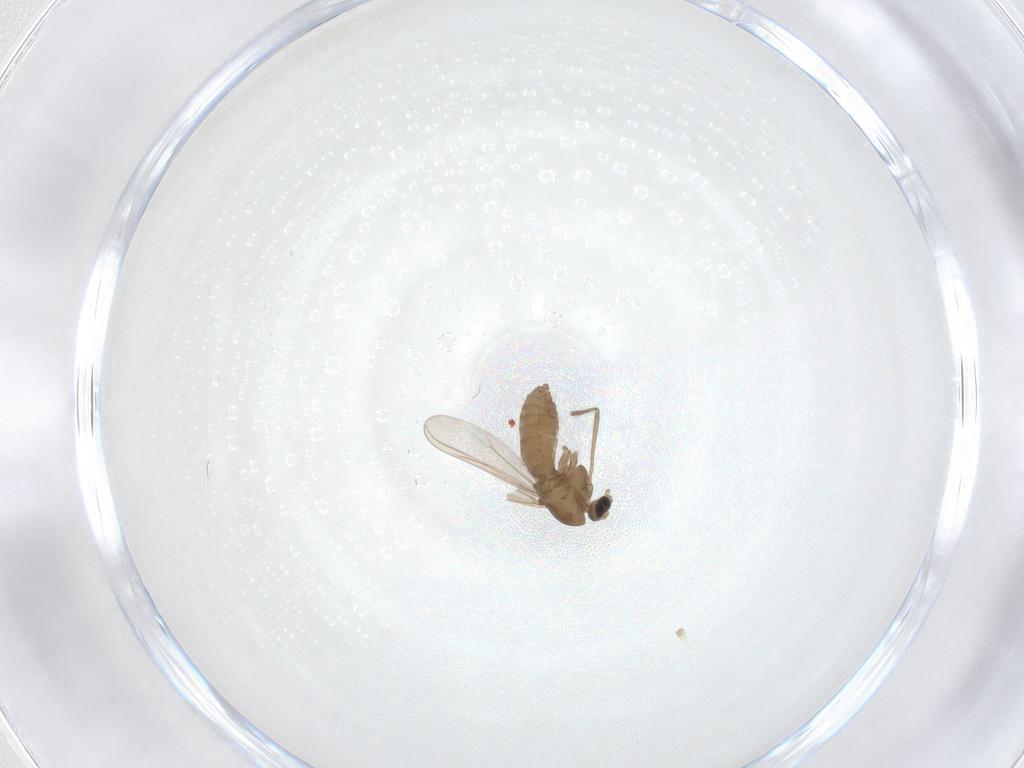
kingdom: Animalia
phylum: Arthropoda
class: Insecta
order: Diptera
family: Chironomidae
